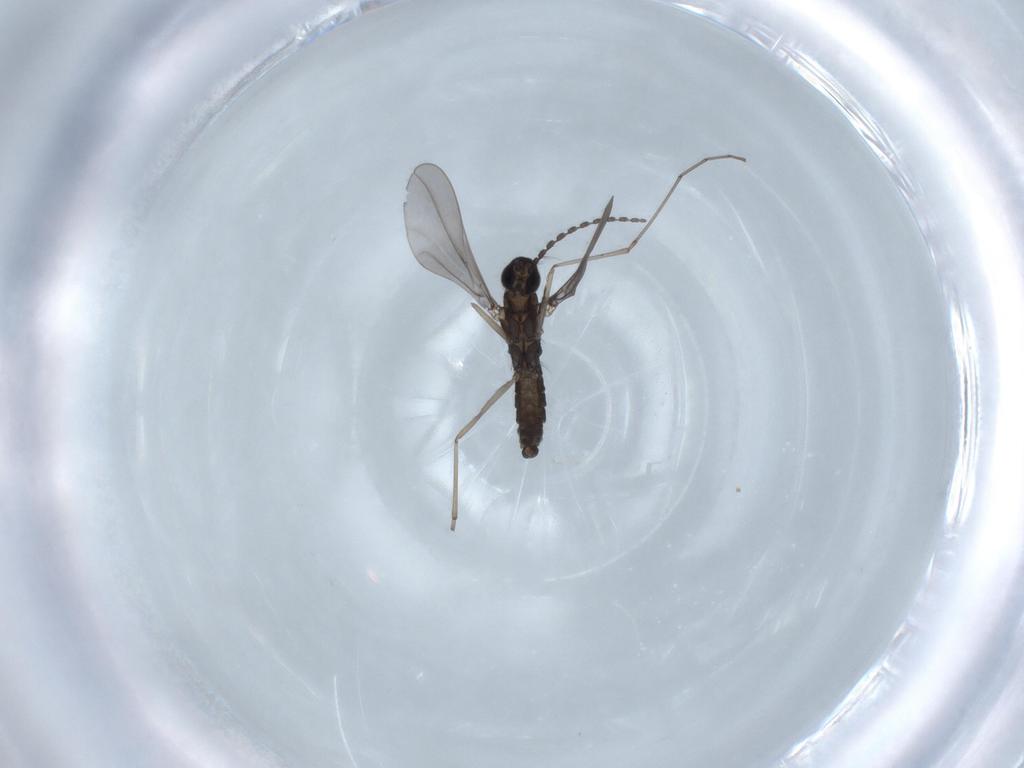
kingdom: Animalia
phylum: Arthropoda
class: Insecta
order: Diptera
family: Cecidomyiidae
